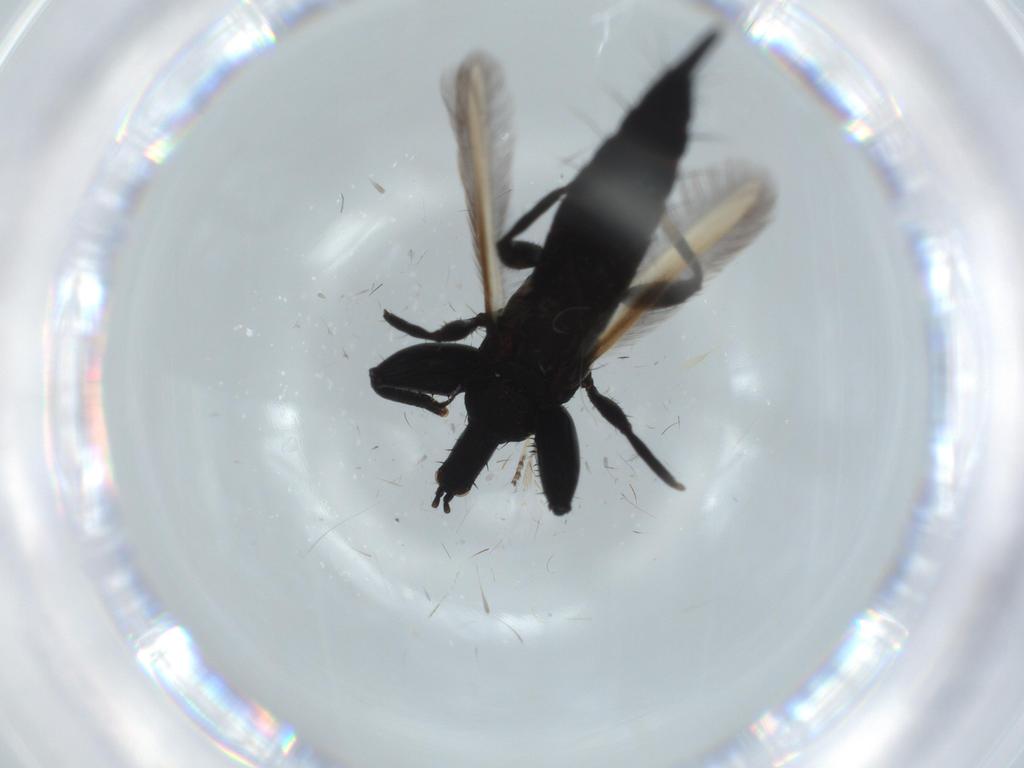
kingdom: Animalia
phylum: Arthropoda
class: Insecta
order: Diptera
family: Milichiidae
